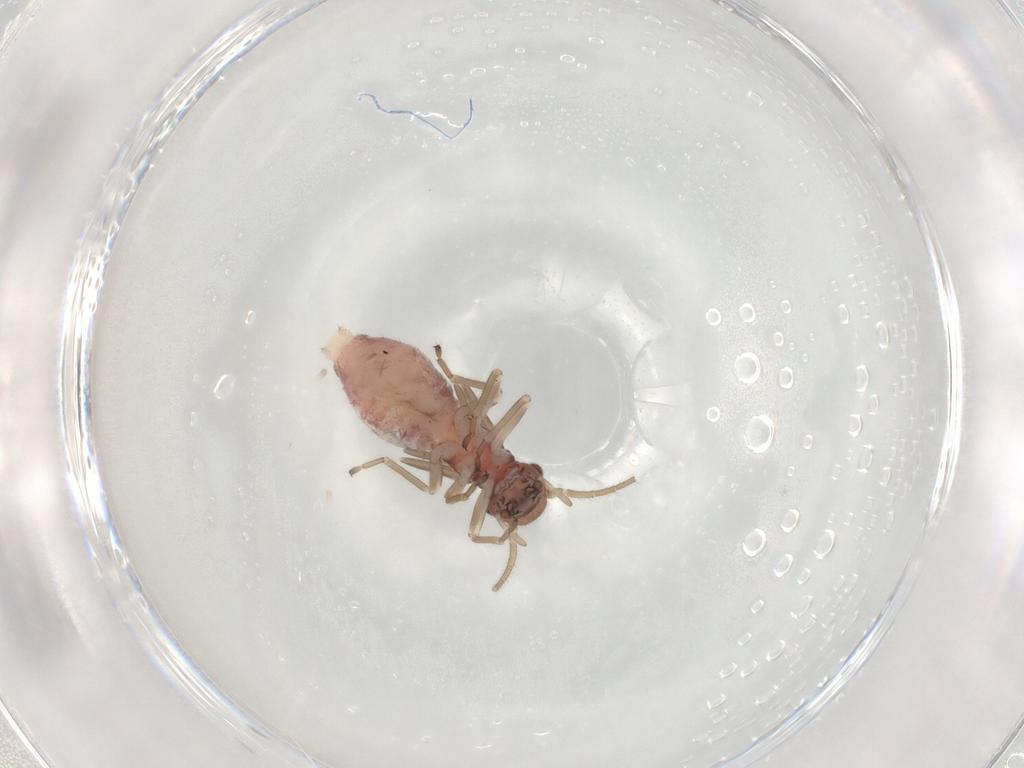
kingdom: Animalia
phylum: Arthropoda
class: Insecta
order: Psocodea
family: Caeciliusidae
